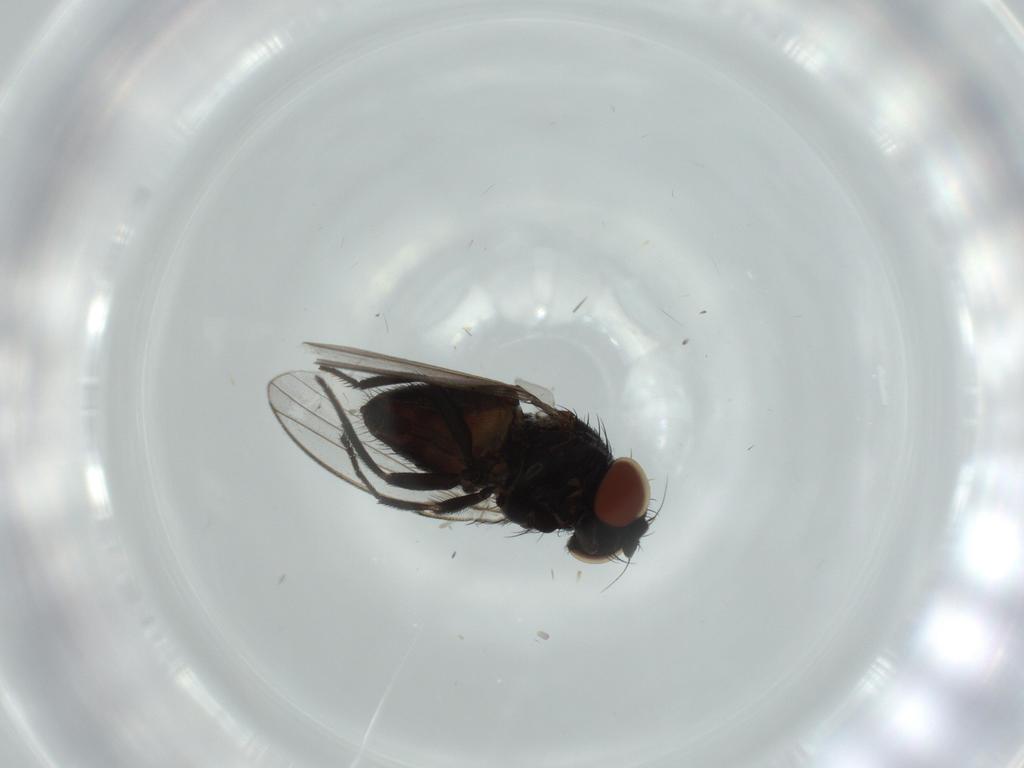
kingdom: Animalia
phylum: Arthropoda
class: Insecta
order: Diptera
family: Milichiidae
